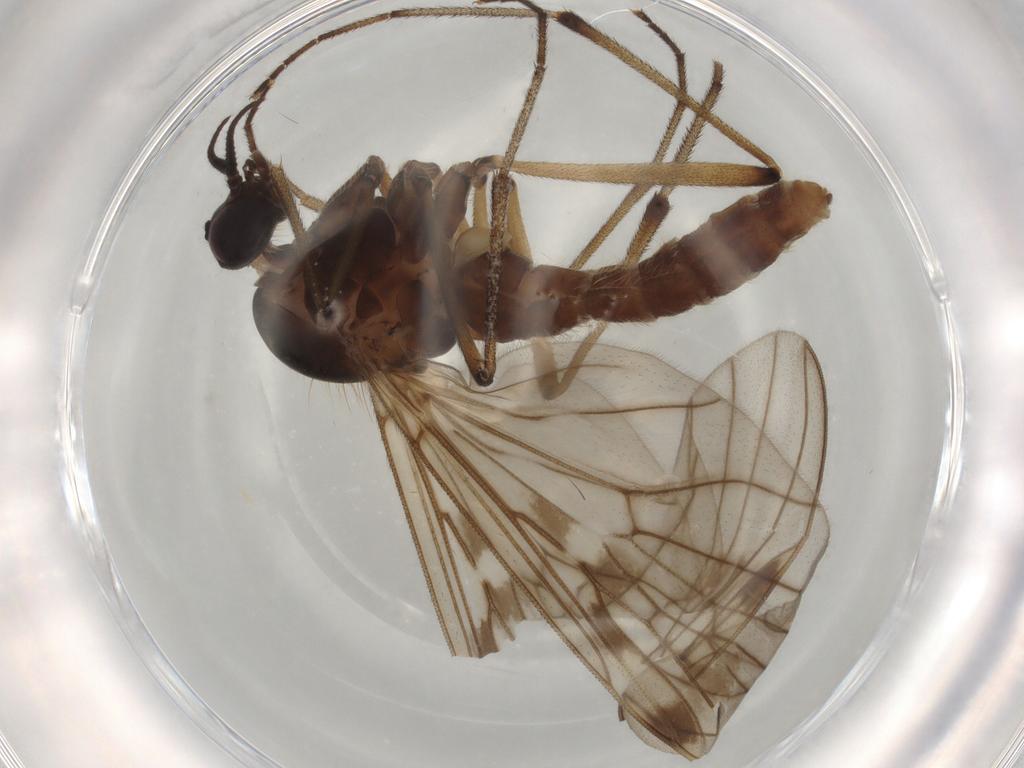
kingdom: Animalia
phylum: Arthropoda
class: Insecta
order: Diptera
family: Anisopodidae
